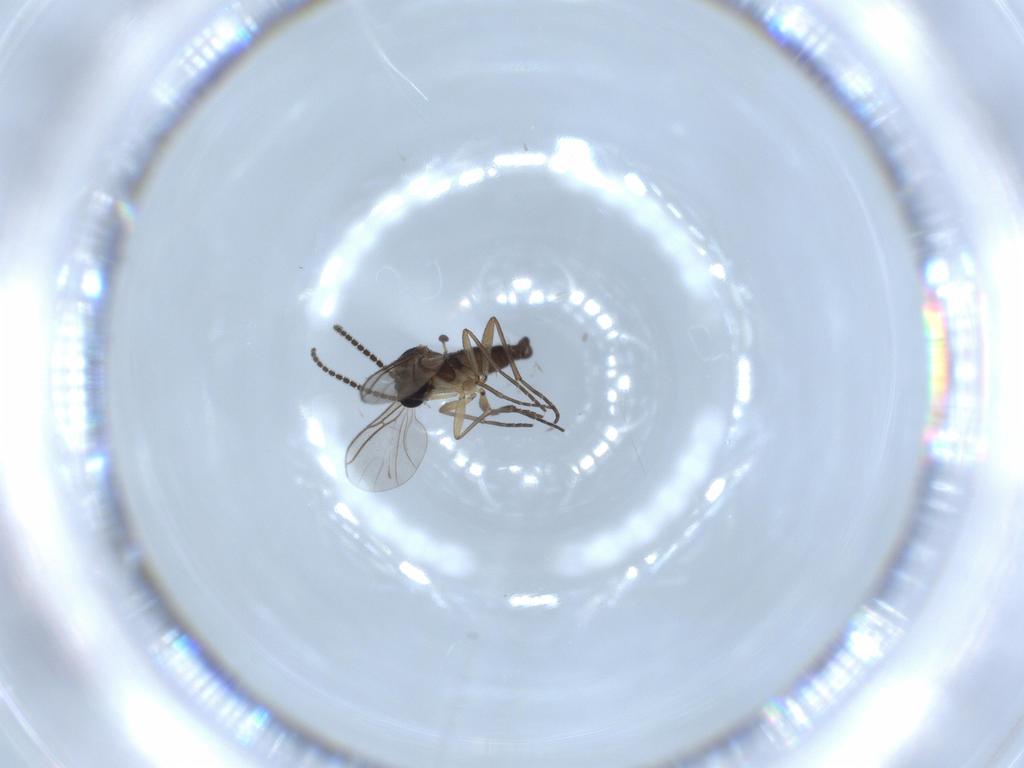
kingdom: Animalia
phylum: Arthropoda
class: Insecta
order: Diptera
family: Sciaridae
